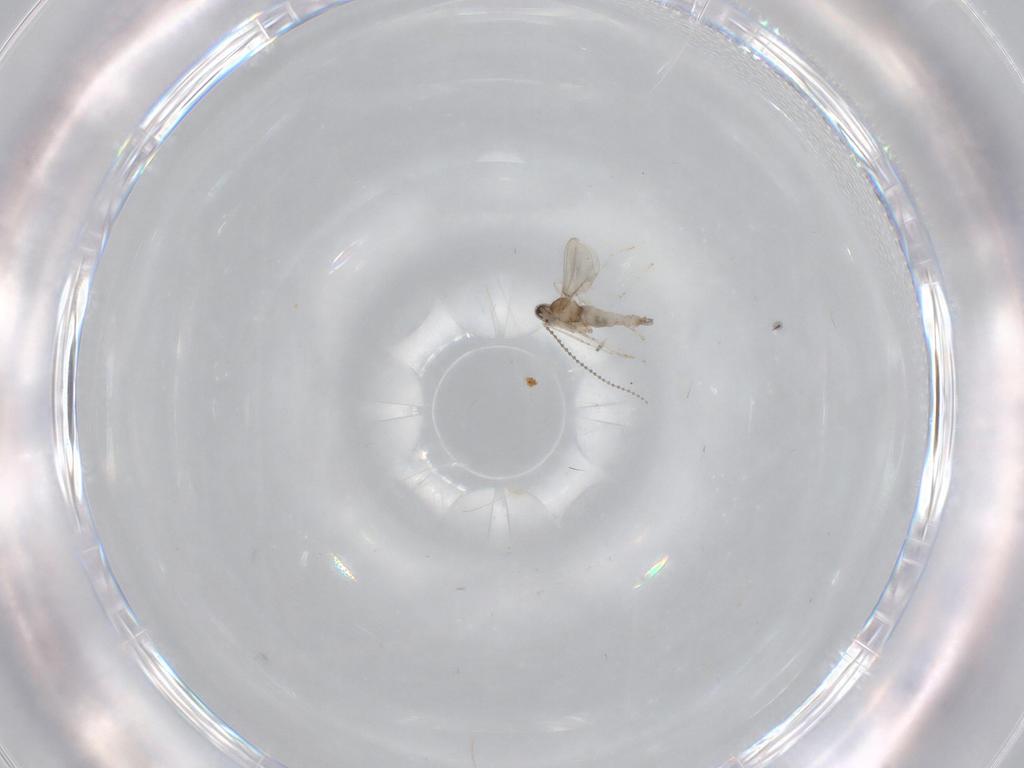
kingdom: Animalia
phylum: Arthropoda
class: Insecta
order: Diptera
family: Cecidomyiidae
